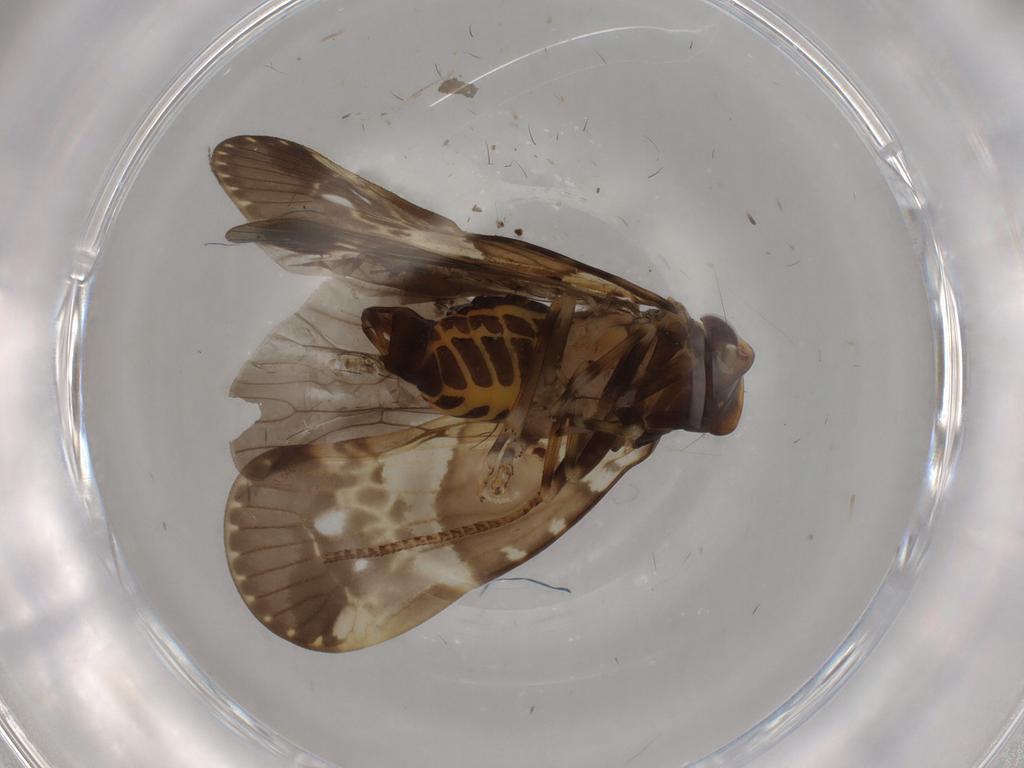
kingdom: Animalia
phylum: Arthropoda
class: Insecta
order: Hemiptera
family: Cixiidae
